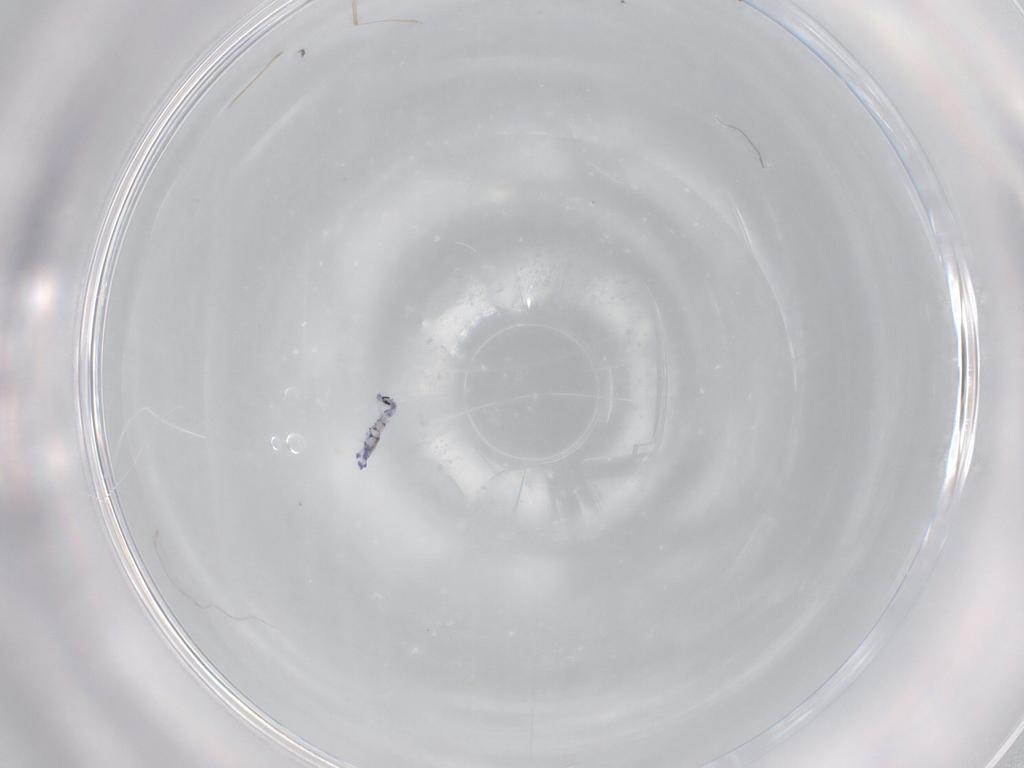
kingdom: Animalia
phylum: Arthropoda
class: Collembola
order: Entomobryomorpha
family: Entomobryidae
